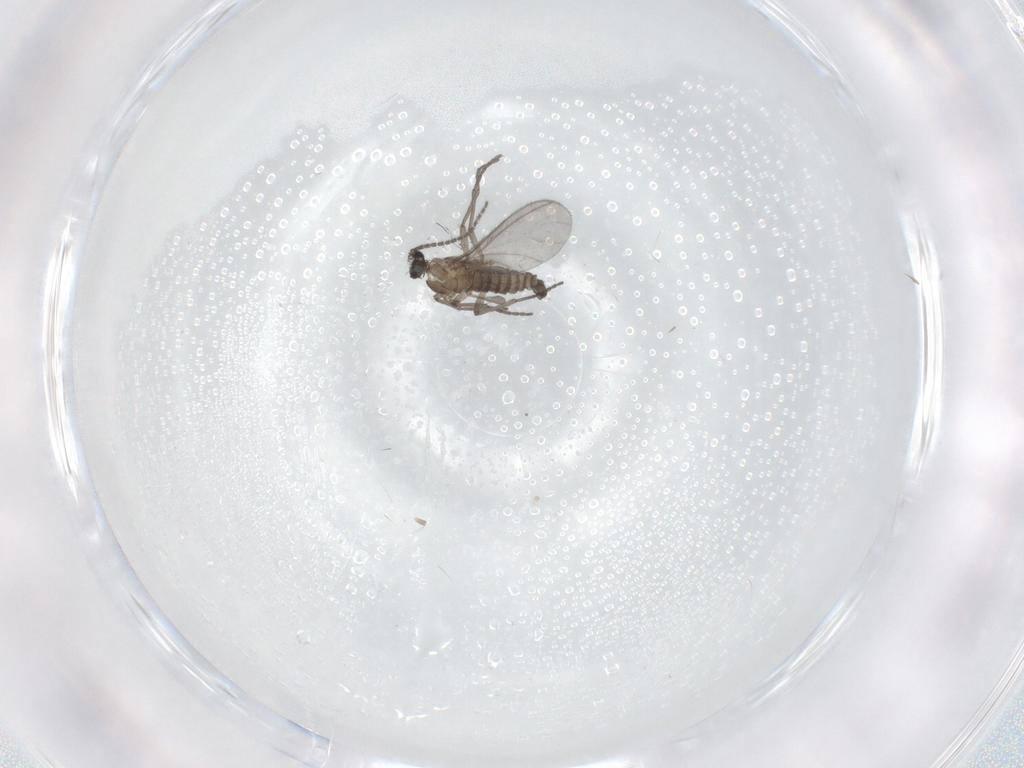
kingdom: Animalia
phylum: Arthropoda
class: Insecta
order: Diptera
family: Sciaridae
